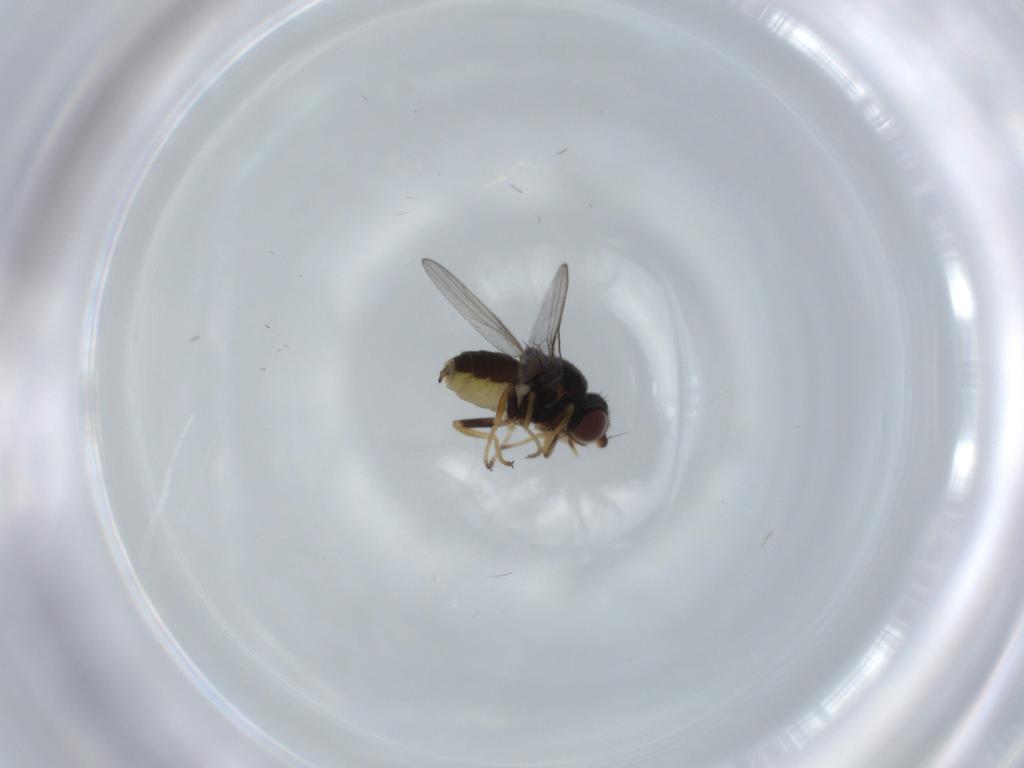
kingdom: Animalia
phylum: Arthropoda
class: Insecta
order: Diptera
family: Chloropidae
